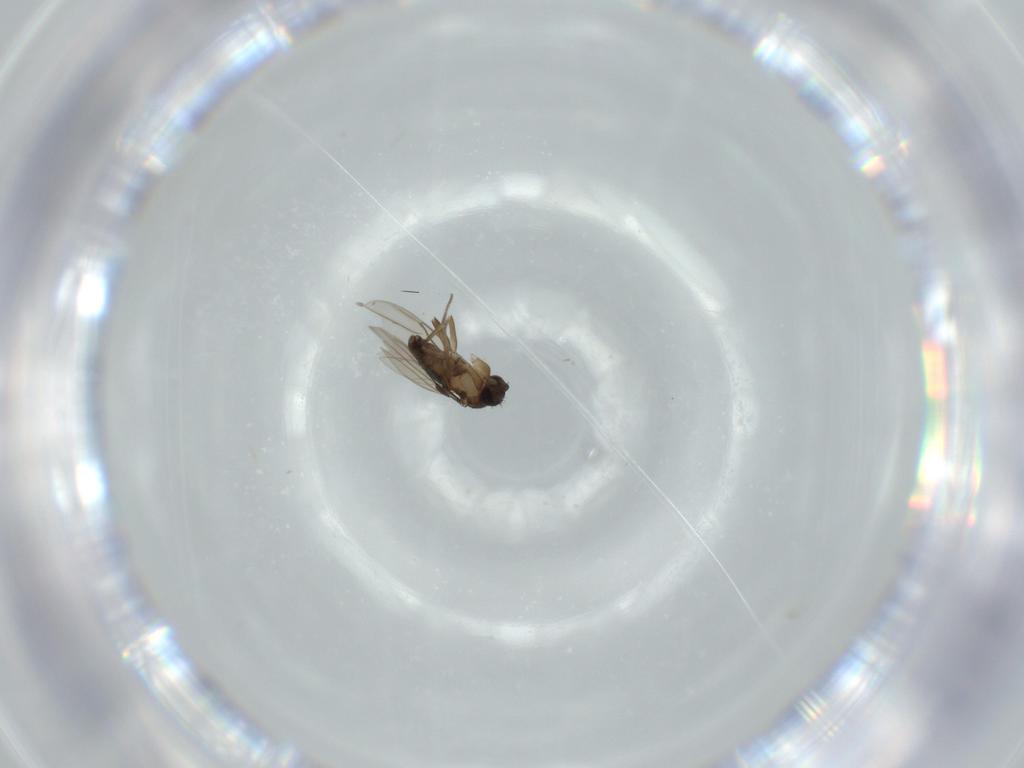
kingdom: Animalia
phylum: Arthropoda
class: Insecta
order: Diptera
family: Phoridae
